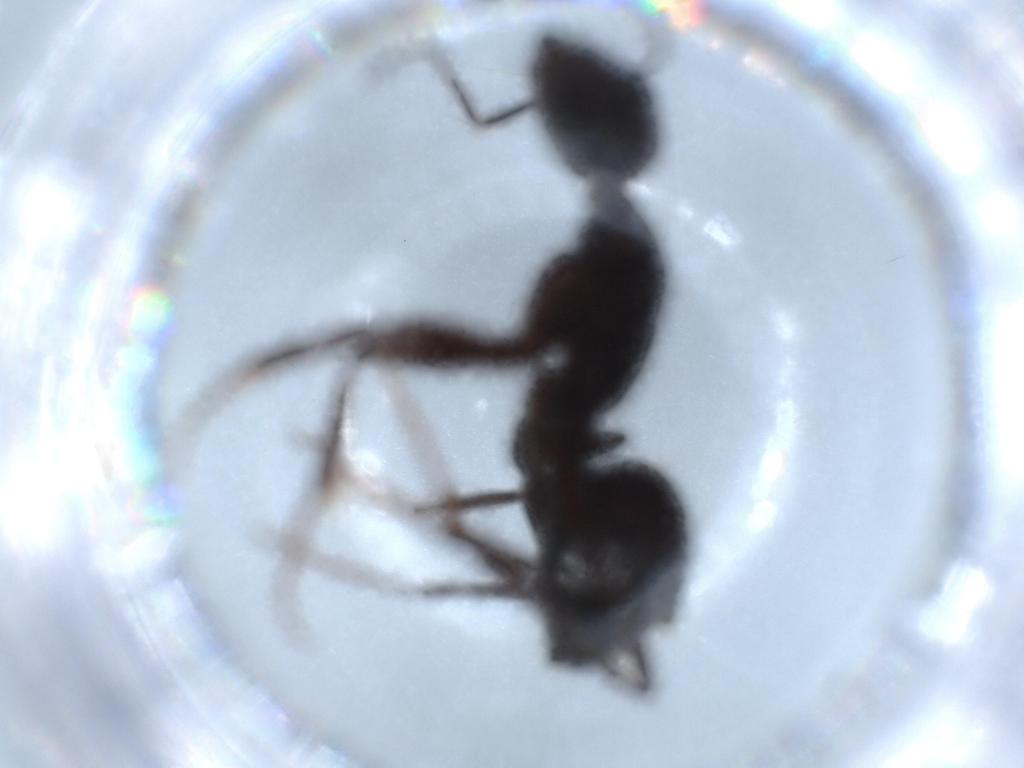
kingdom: Animalia
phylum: Arthropoda
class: Insecta
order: Hymenoptera
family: Formicidae
